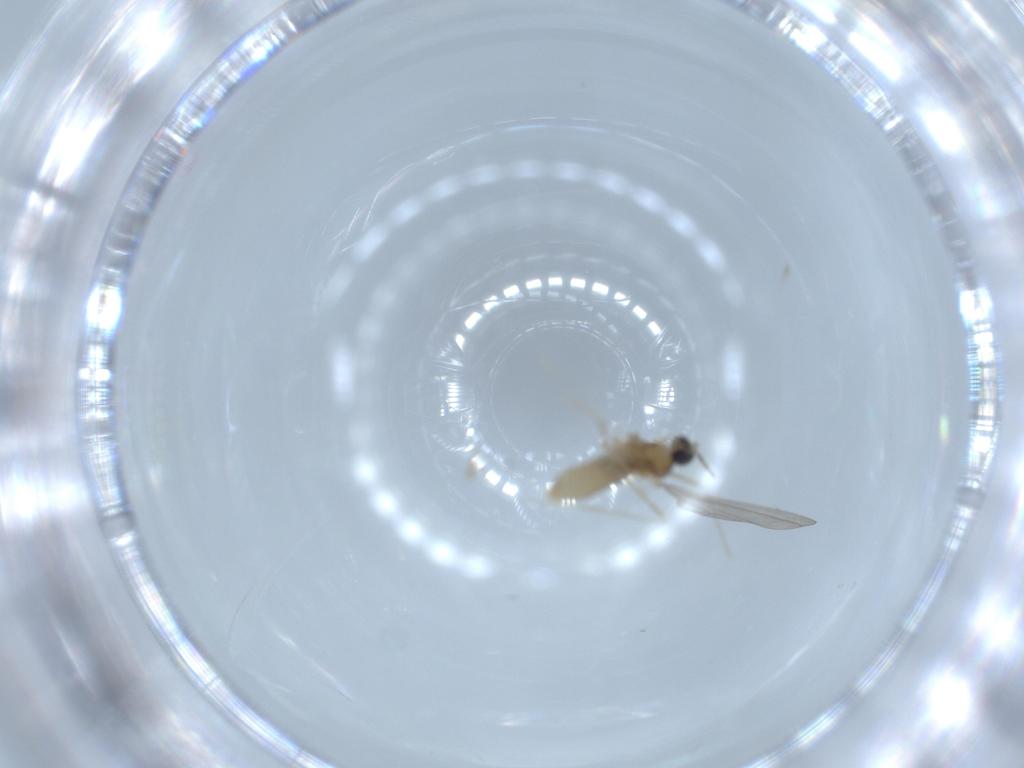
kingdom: Animalia
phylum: Arthropoda
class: Insecta
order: Diptera
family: Cecidomyiidae
